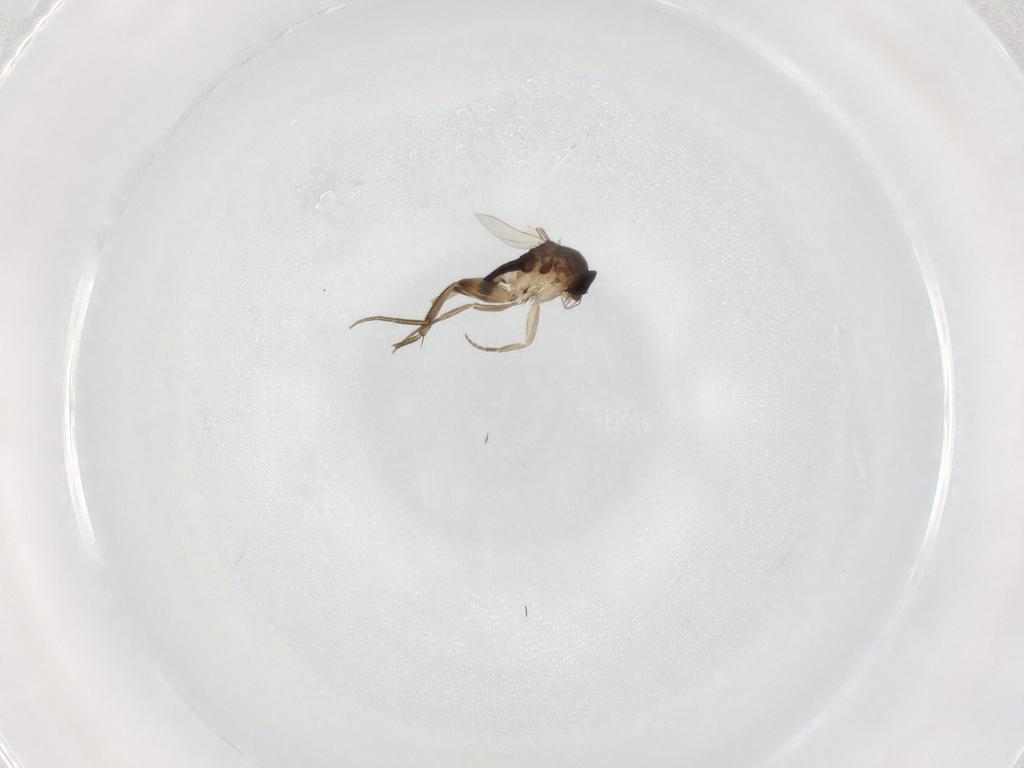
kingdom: Animalia
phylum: Arthropoda
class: Insecta
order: Diptera
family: Phoridae
